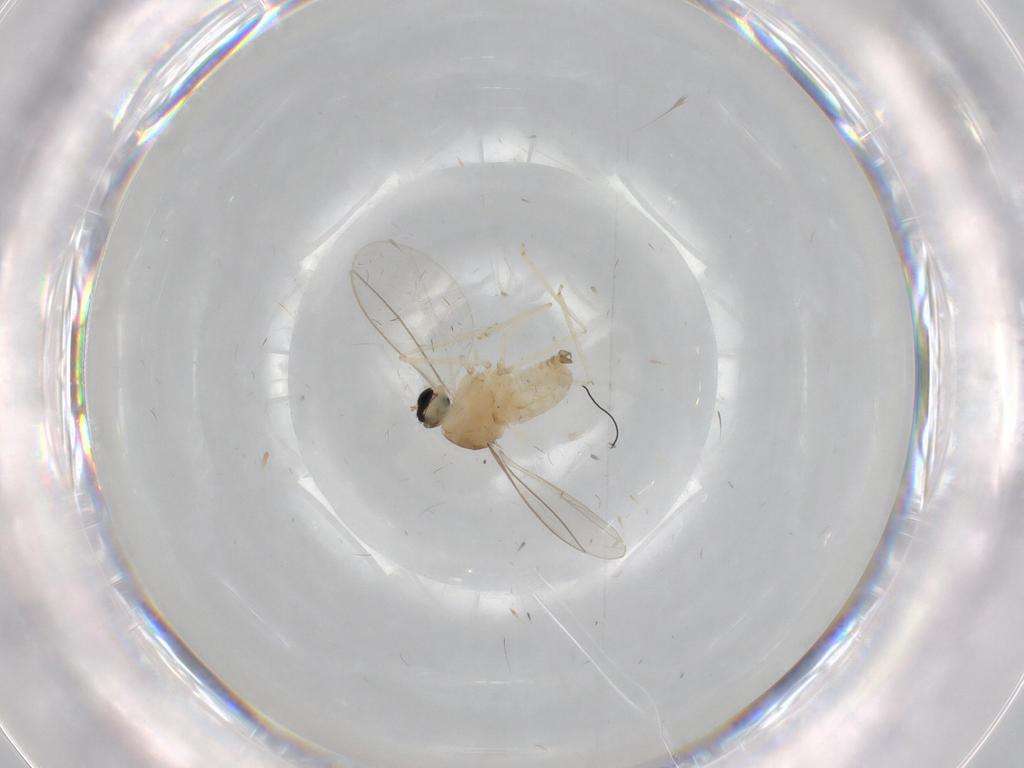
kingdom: Animalia
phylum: Arthropoda
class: Insecta
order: Diptera
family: Cecidomyiidae
